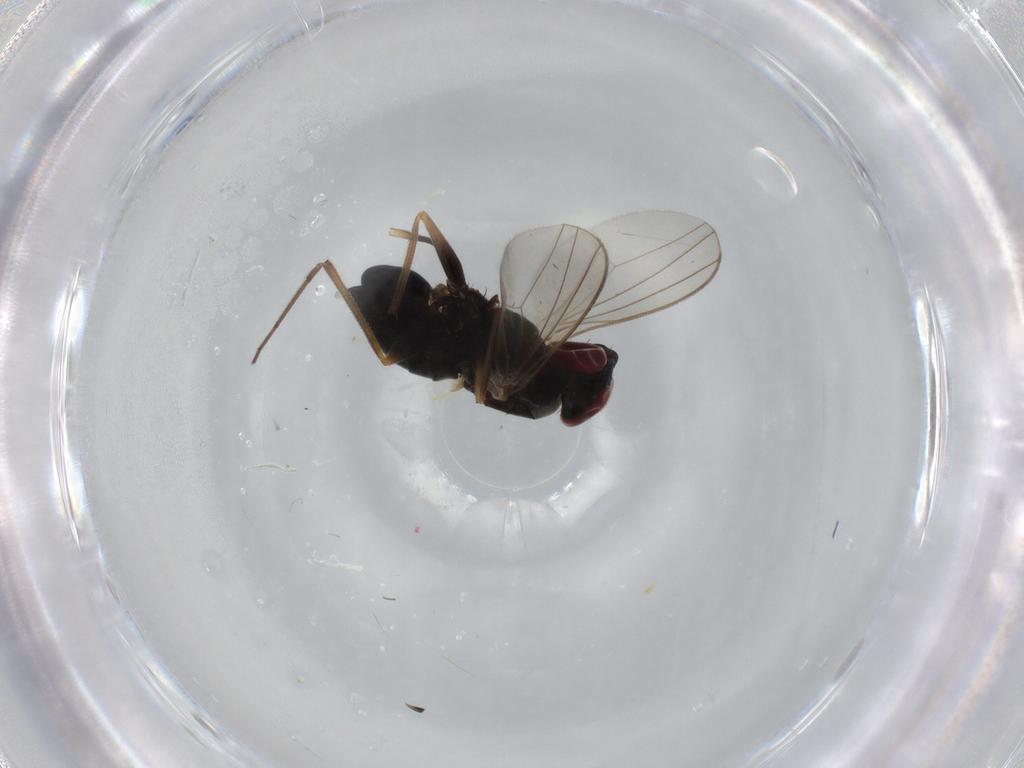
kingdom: Animalia
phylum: Arthropoda
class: Insecta
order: Diptera
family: Dolichopodidae
